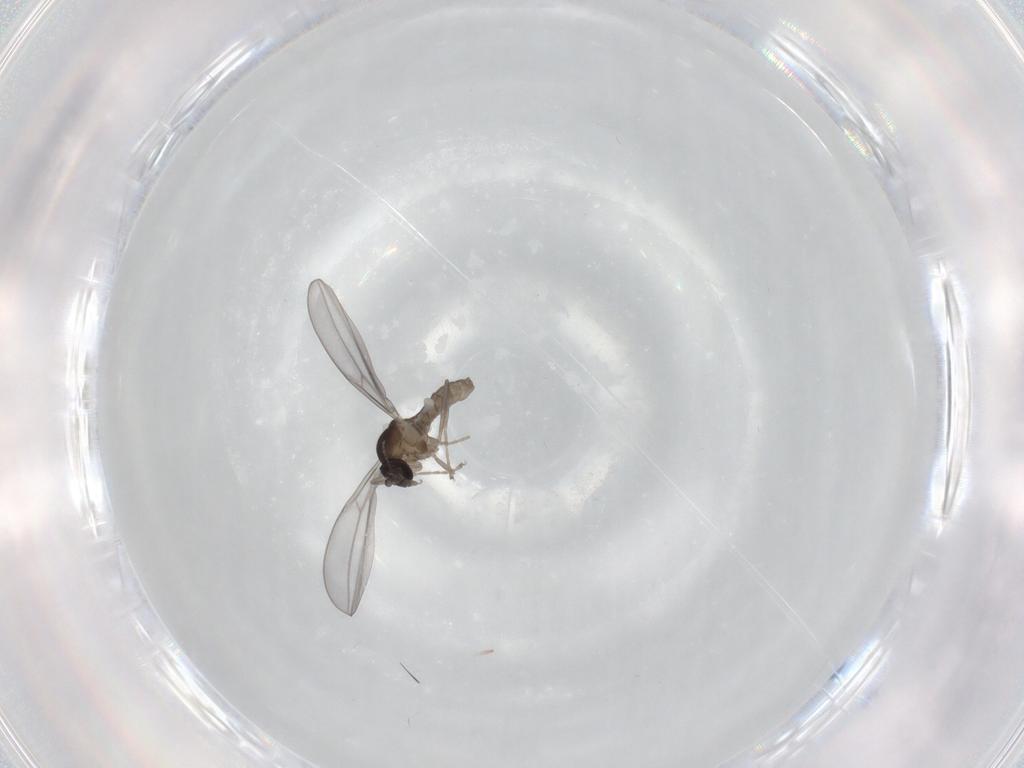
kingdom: Animalia
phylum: Arthropoda
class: Insecta
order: Diptera
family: Cecidomyiidae
